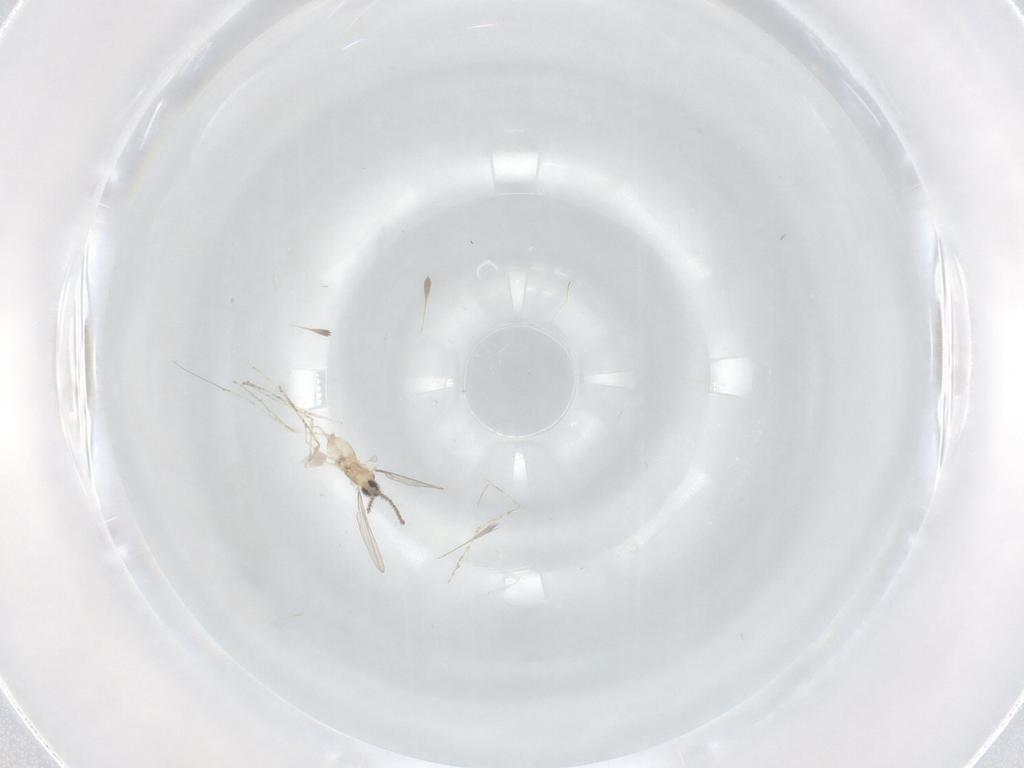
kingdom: Animalia
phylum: Arthropoda
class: Insecta
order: Diptera
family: Cecidomyiidae
